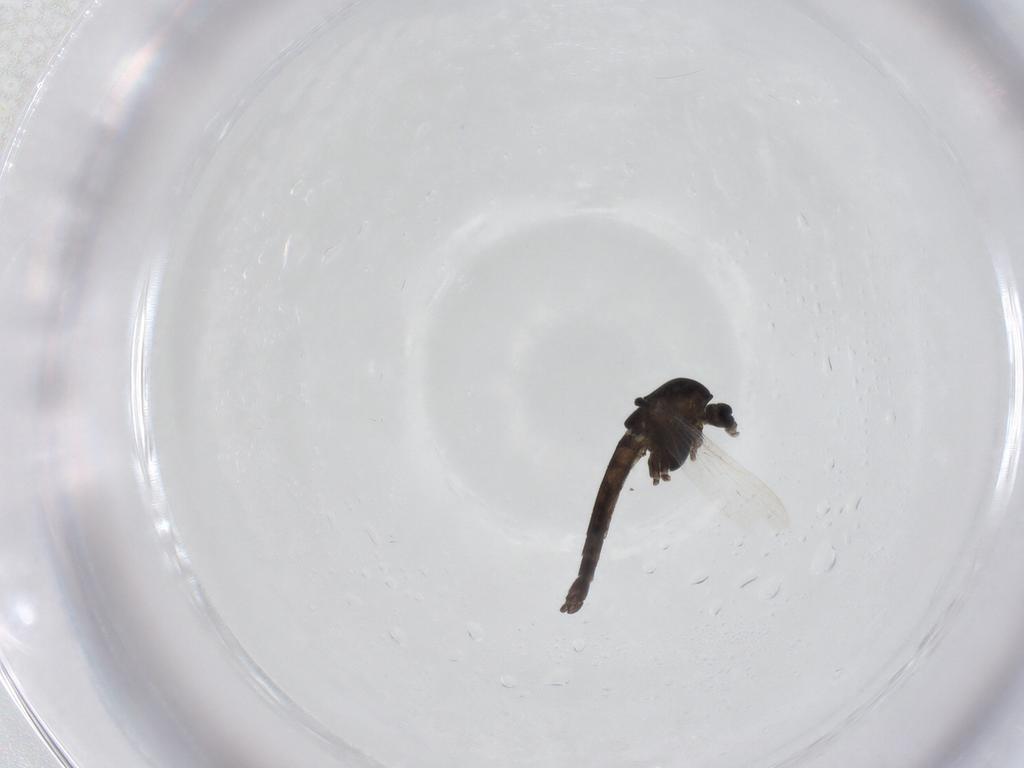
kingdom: Animalia
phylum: Arthropoda
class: Insecta
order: Diptera
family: Chironomidae
